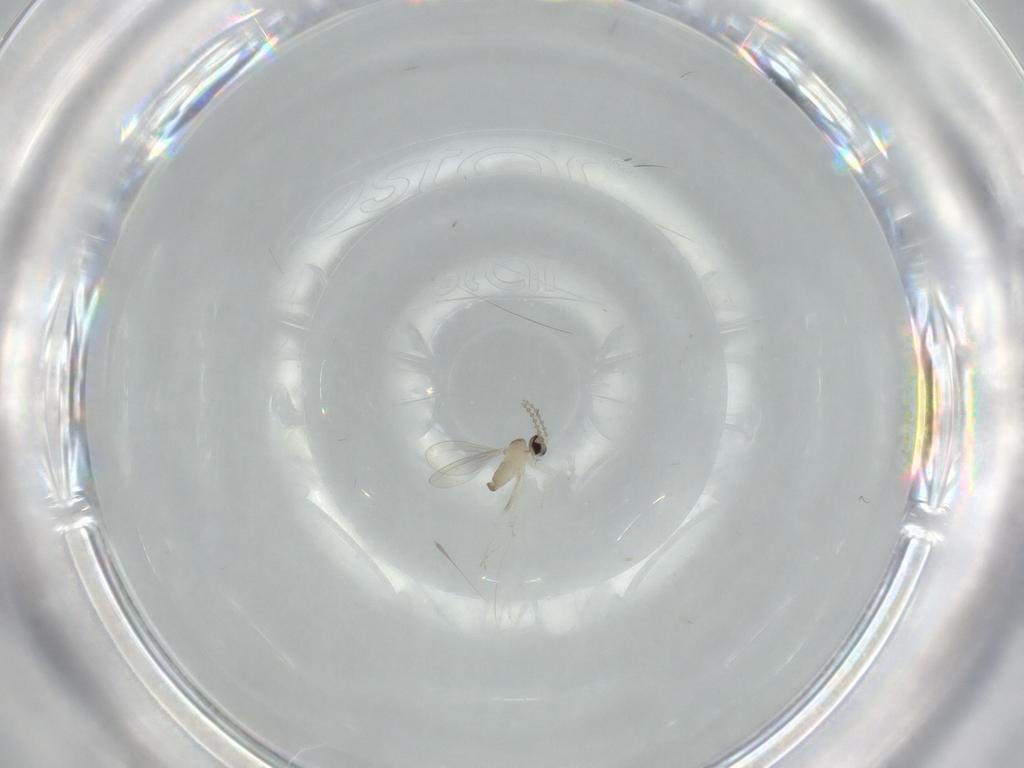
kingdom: Animalia
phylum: Arthropoda
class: Insecta
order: Diptera
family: Cecidomyiidae
